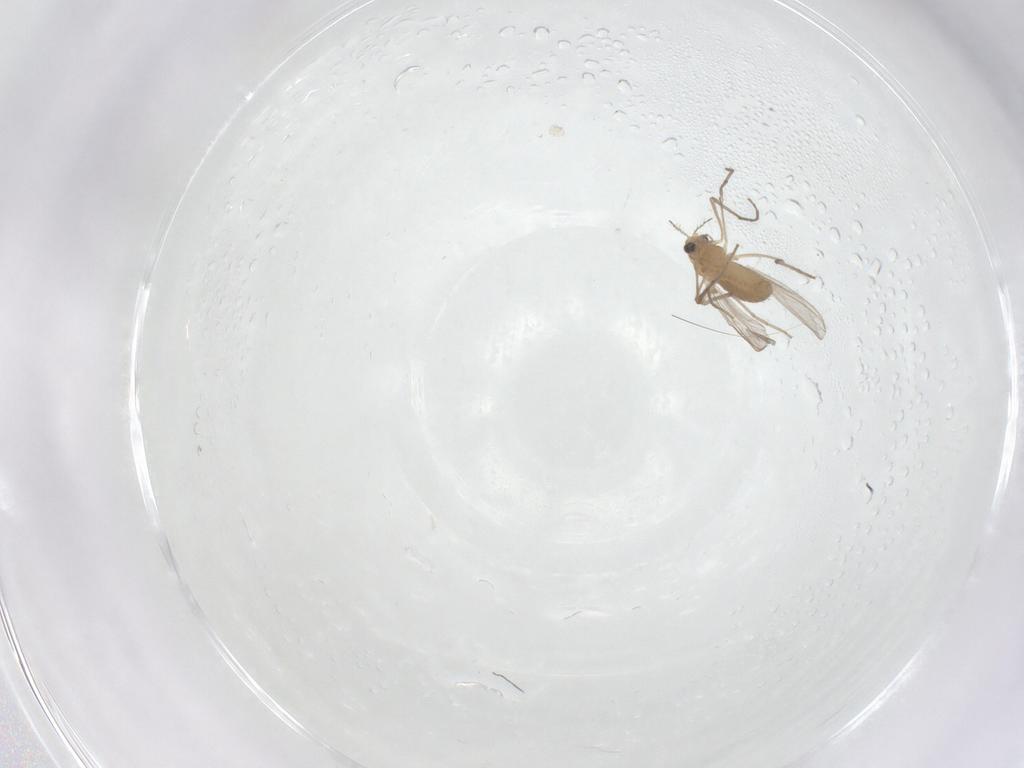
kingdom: Animalia
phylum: Arthropoda
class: Insecta
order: Diptera
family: Chironomidae
